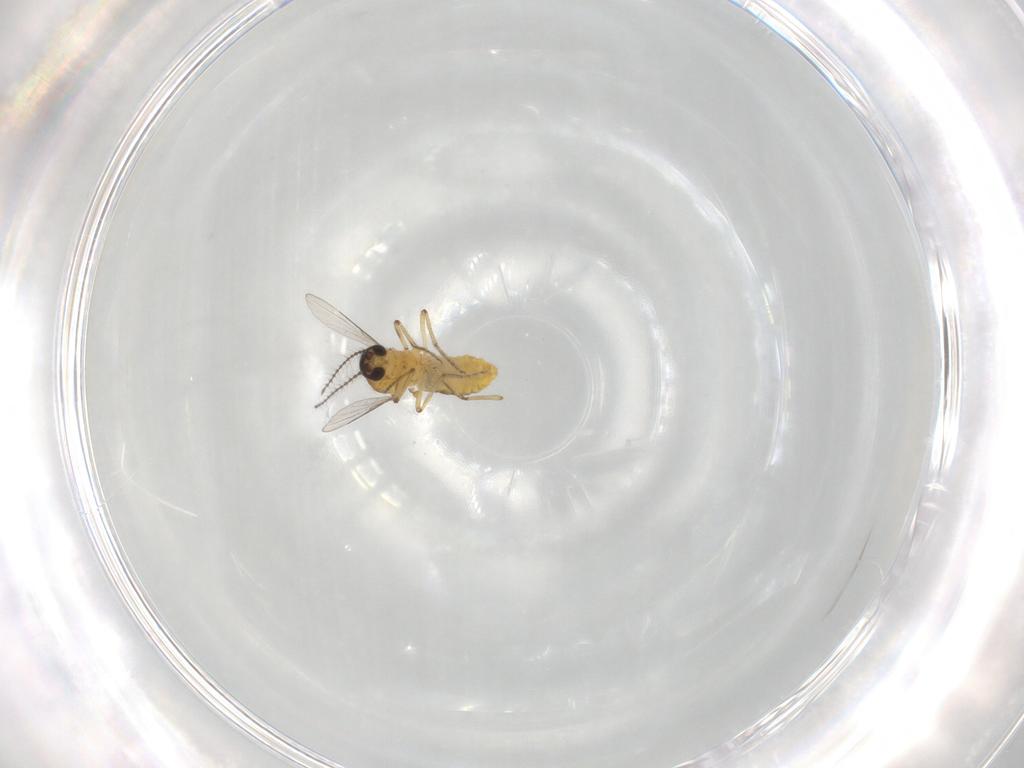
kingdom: Animalia
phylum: Arthropoda
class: Insecta
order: Diptera
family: Ceratopogonidae
